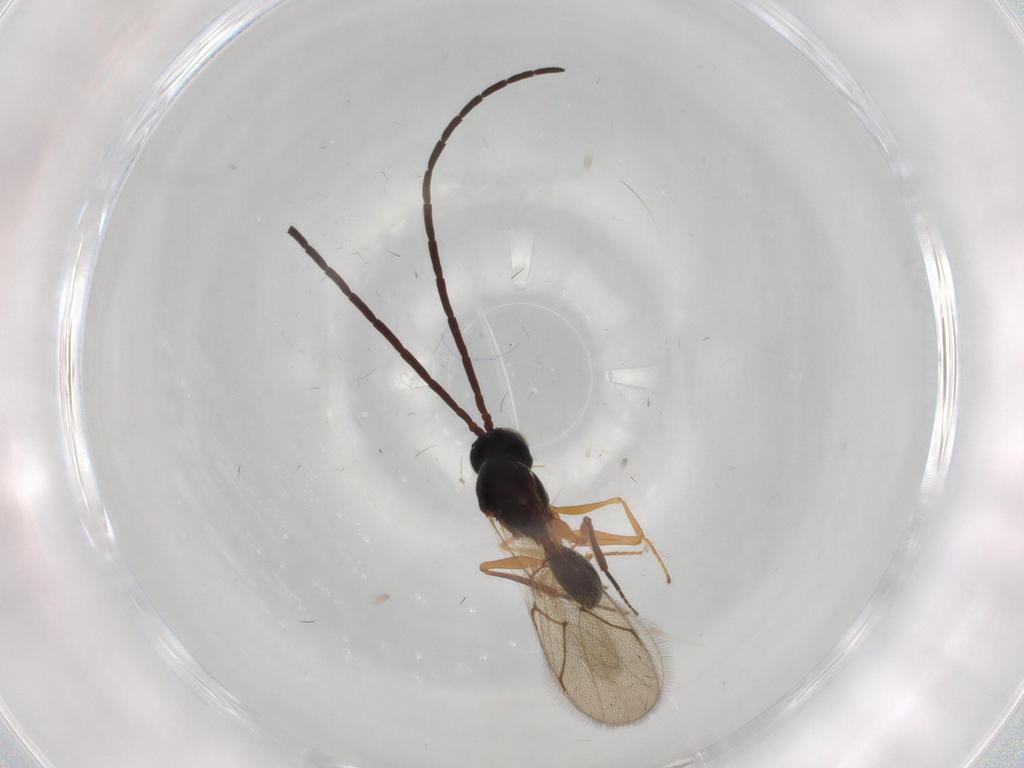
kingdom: Animalia
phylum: Arthropoda
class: Insecta
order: Hymenoptera
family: Figitidae
